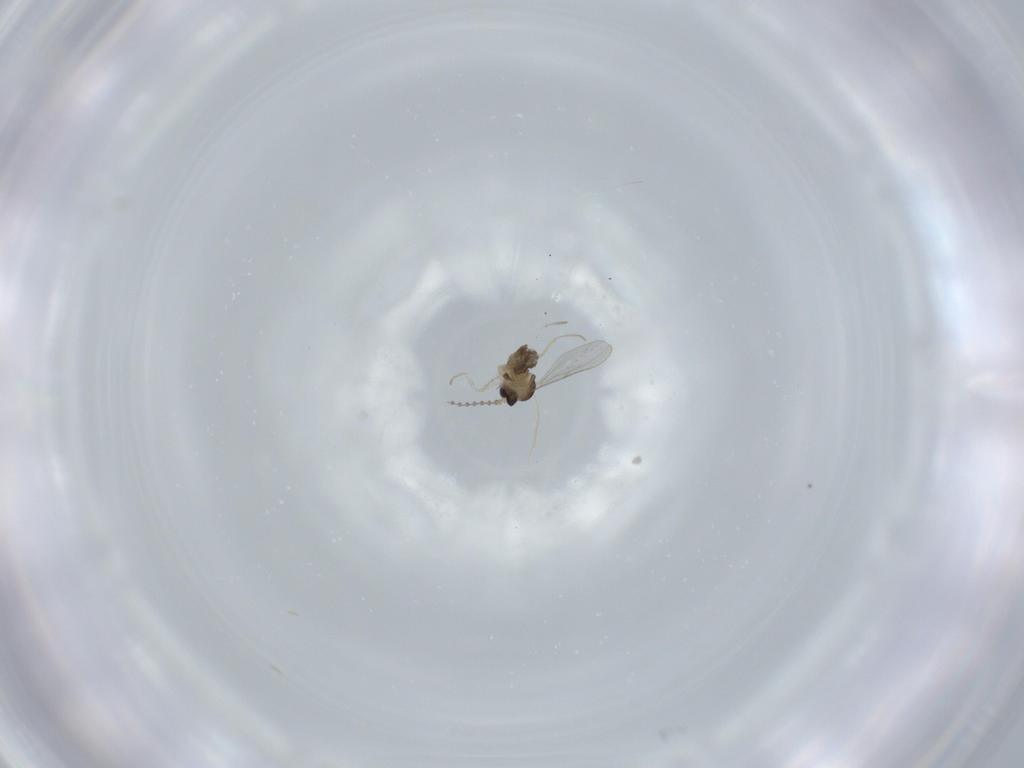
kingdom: Animalia
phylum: Arthropoda
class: Insecta
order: Diptera
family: Cecidomyiidae
